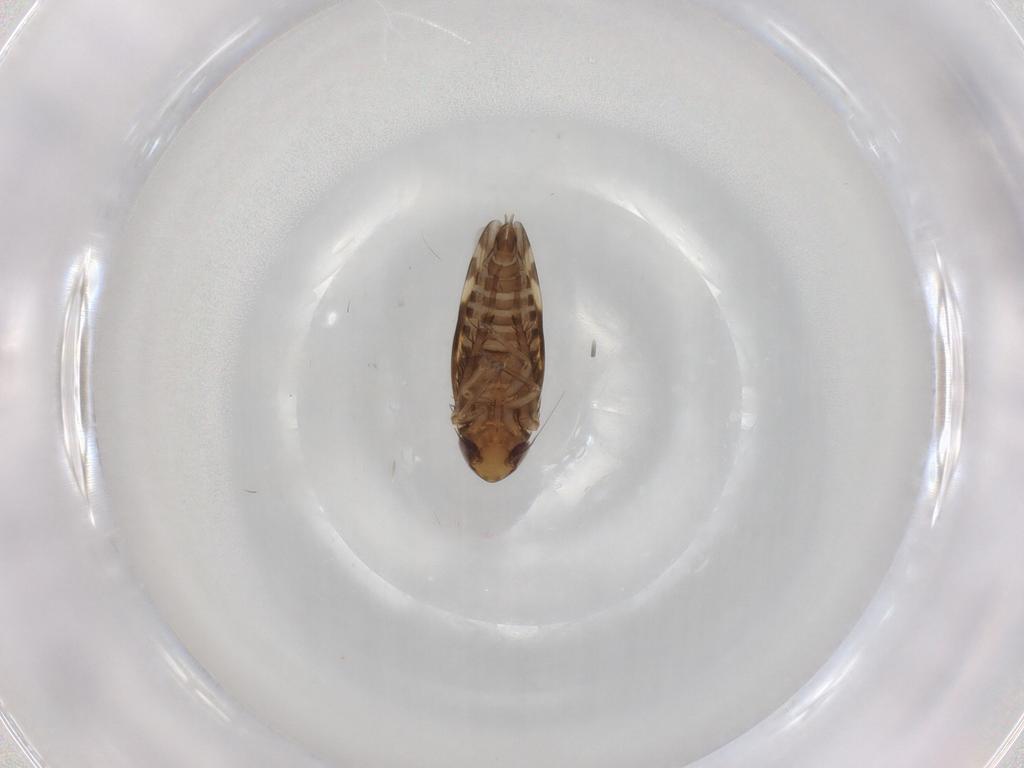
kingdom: Animalia
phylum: Arthropoda
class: Insecta
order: Hemiptera
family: Cicadellidae
